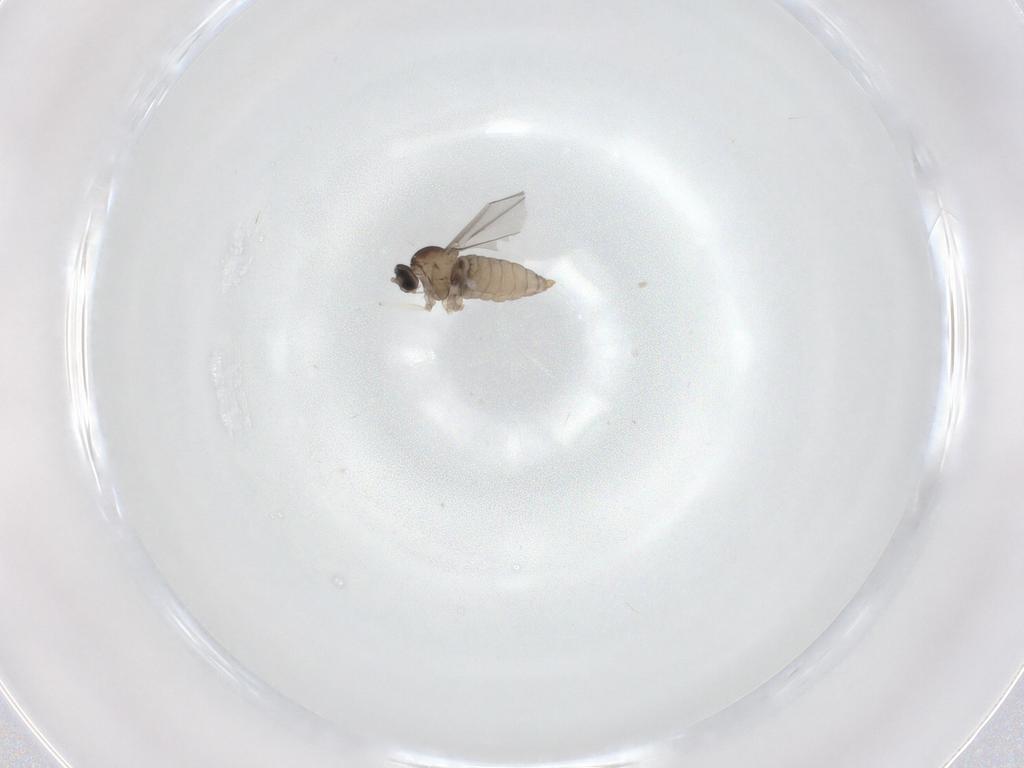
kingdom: Animalia
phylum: Arthropoda
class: Insecta
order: Diptera
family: Cecidomyiidae
